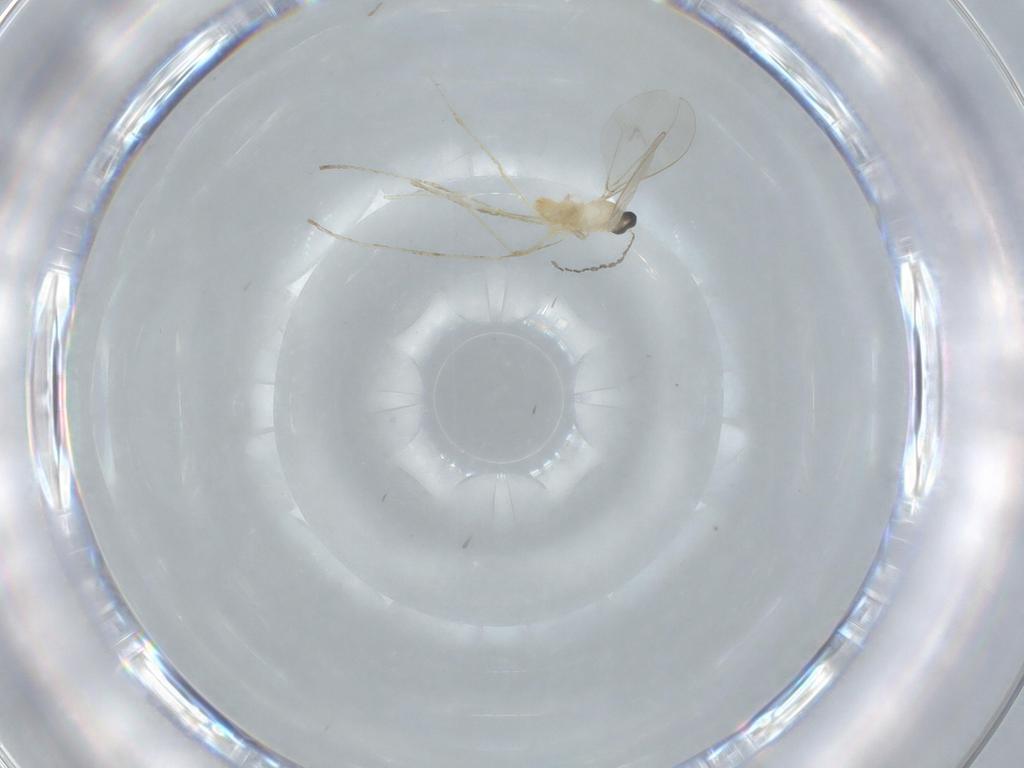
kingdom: Animalia
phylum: Arthropoda
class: Insecta
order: Diptera
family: Cecidomyiidae
